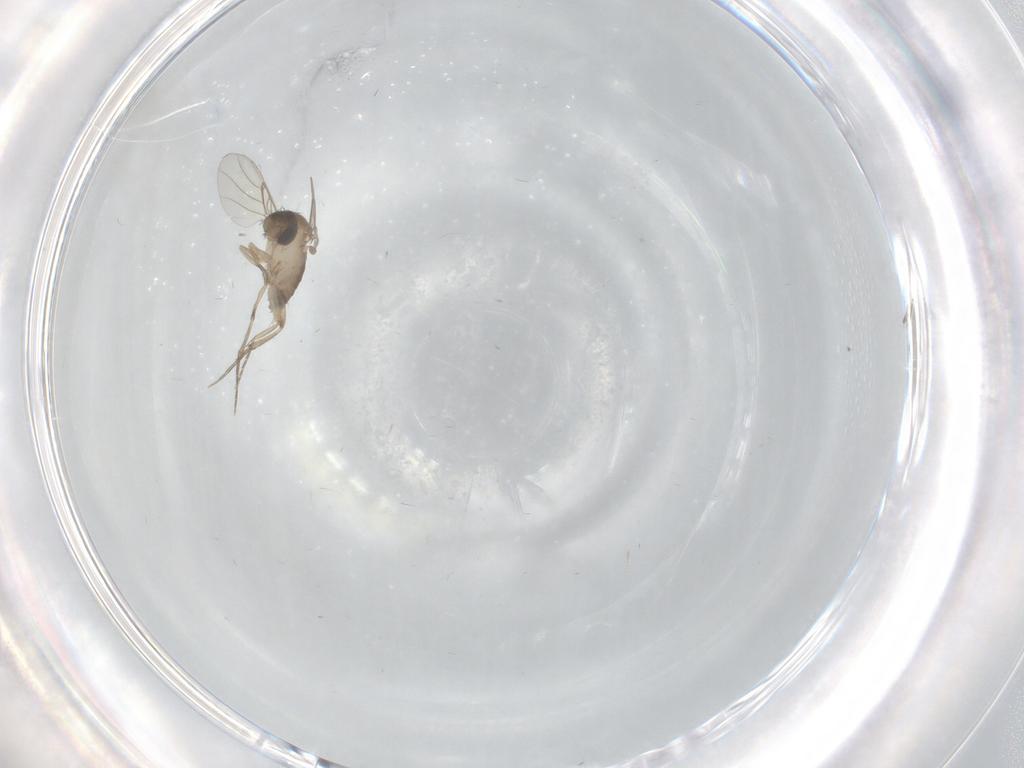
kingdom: Animalia
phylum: Arthropoda
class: Insecta
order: Diptera
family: Phoridae
